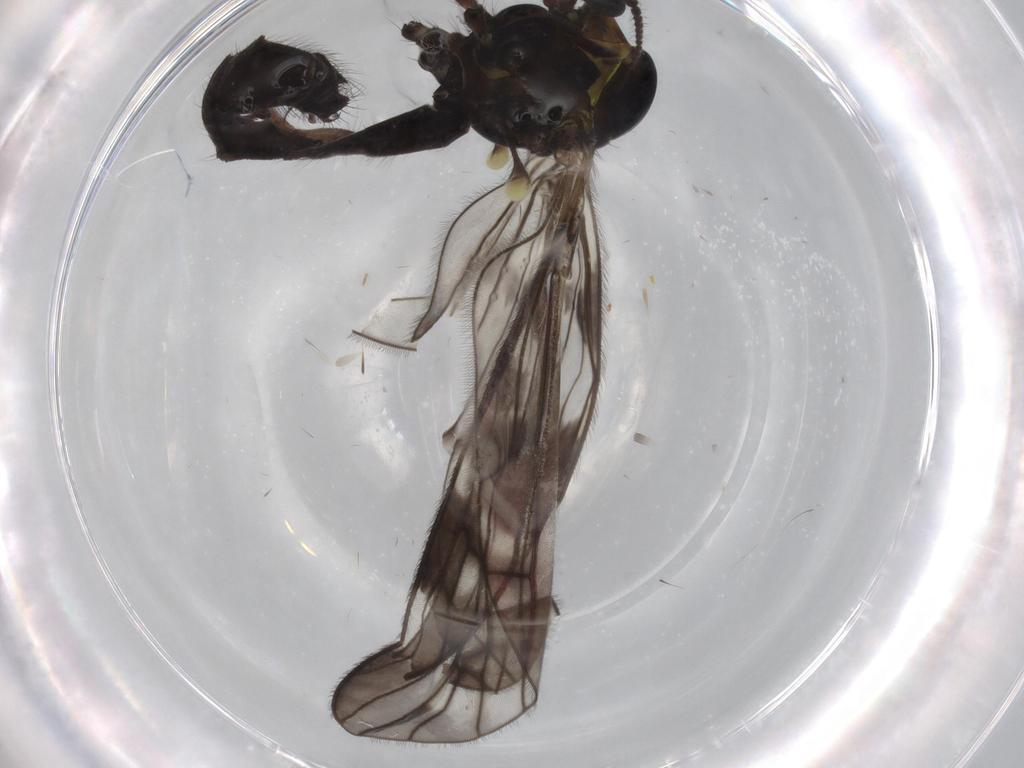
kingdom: Animalia
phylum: Arthropoda
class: Insecta
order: Diptera
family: Limoniidae
